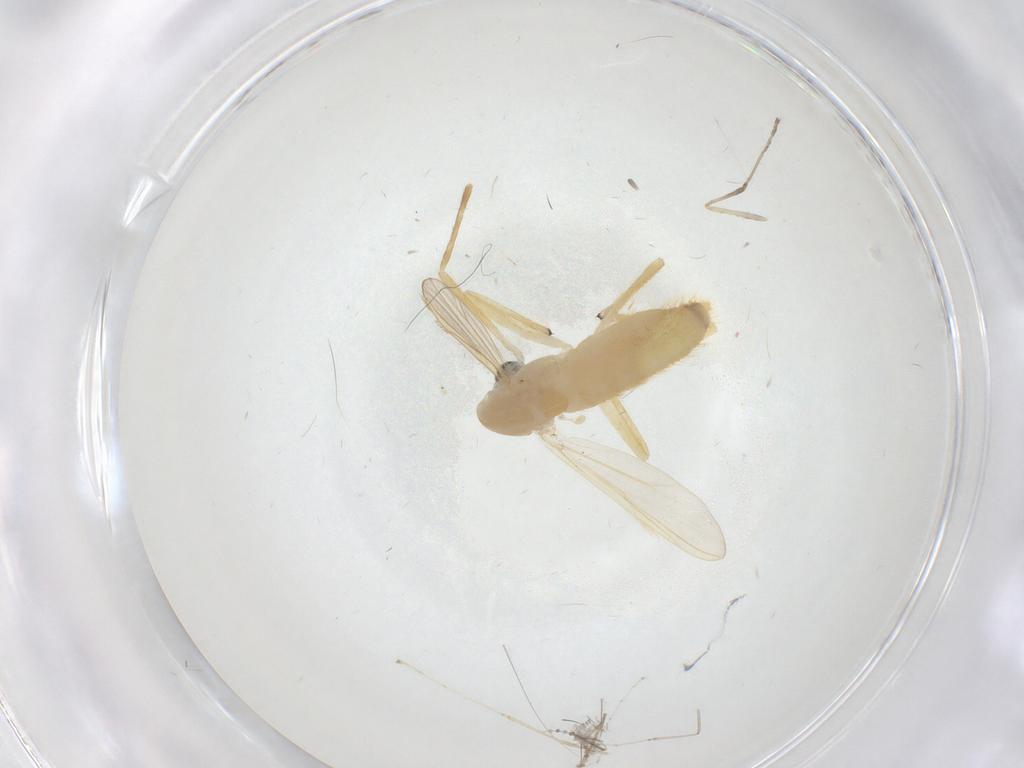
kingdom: Animalia
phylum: Arthropoda
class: Insecta
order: Diptera
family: Chironomidae
